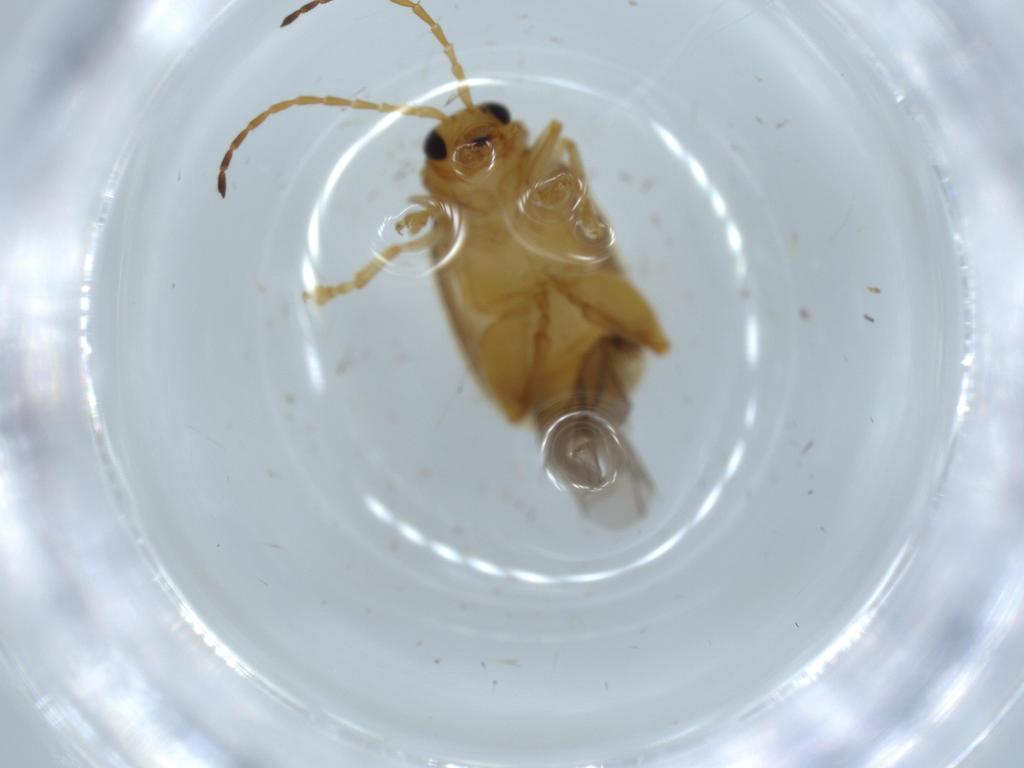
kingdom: Animalia
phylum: Arthropoda
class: Insecta
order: Coleoptera
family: Chrysomelidae
